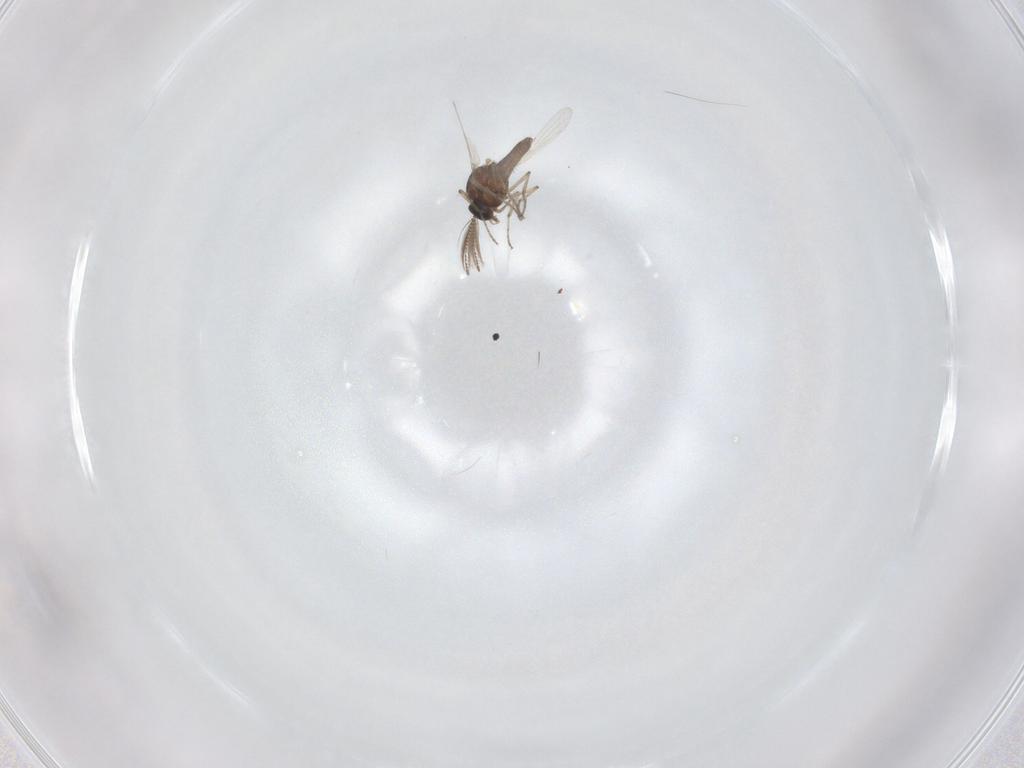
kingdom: Animalia
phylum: Arthropoda
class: Insecta
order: Diptera
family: Ceratopogonidae
